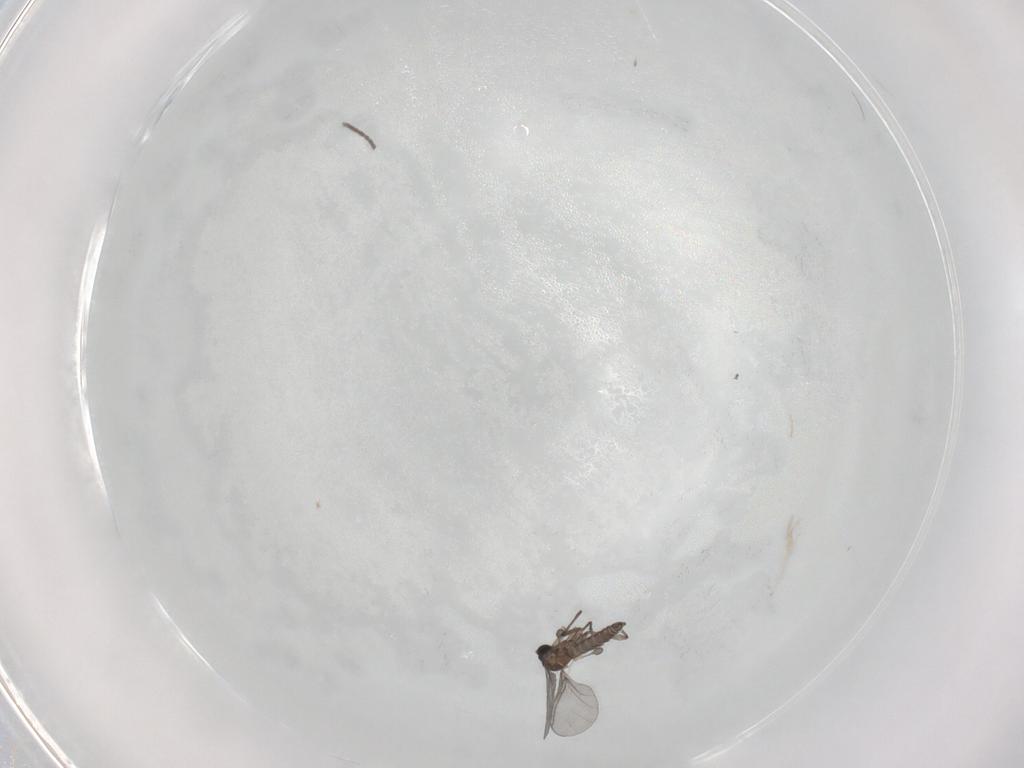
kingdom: Animalia
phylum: Arthropoda
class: Insecta
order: Diptera
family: Sciaridae
